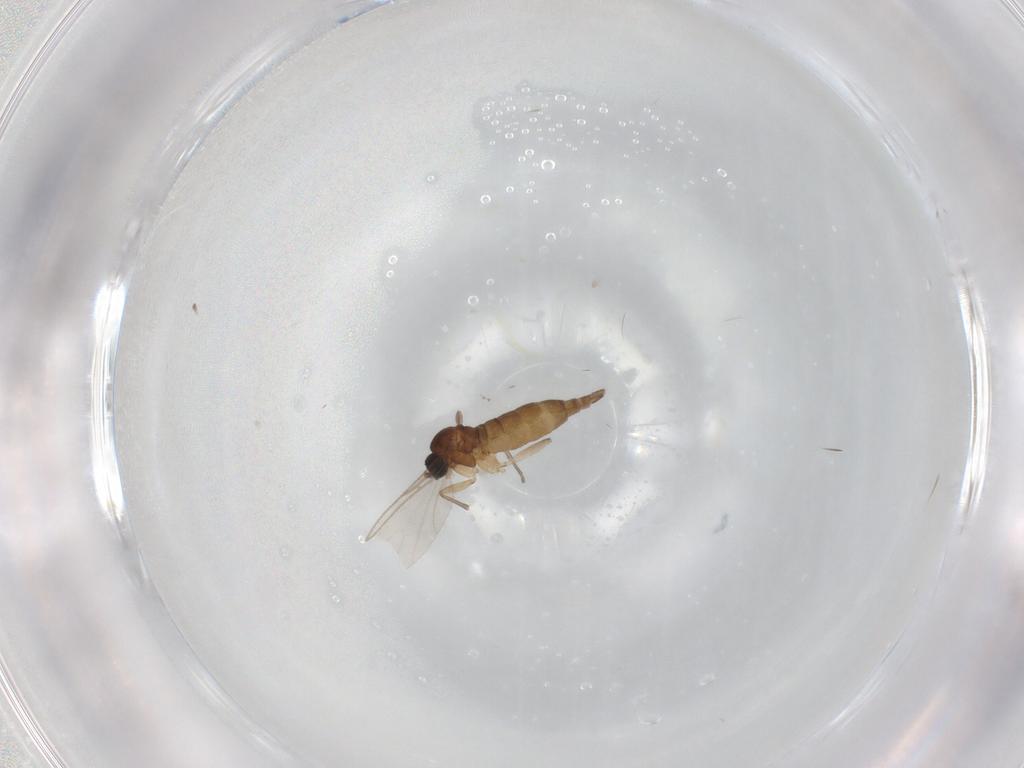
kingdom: Animalia
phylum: Arthropoda
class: Insecta
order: Diptera
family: Sciaridae
